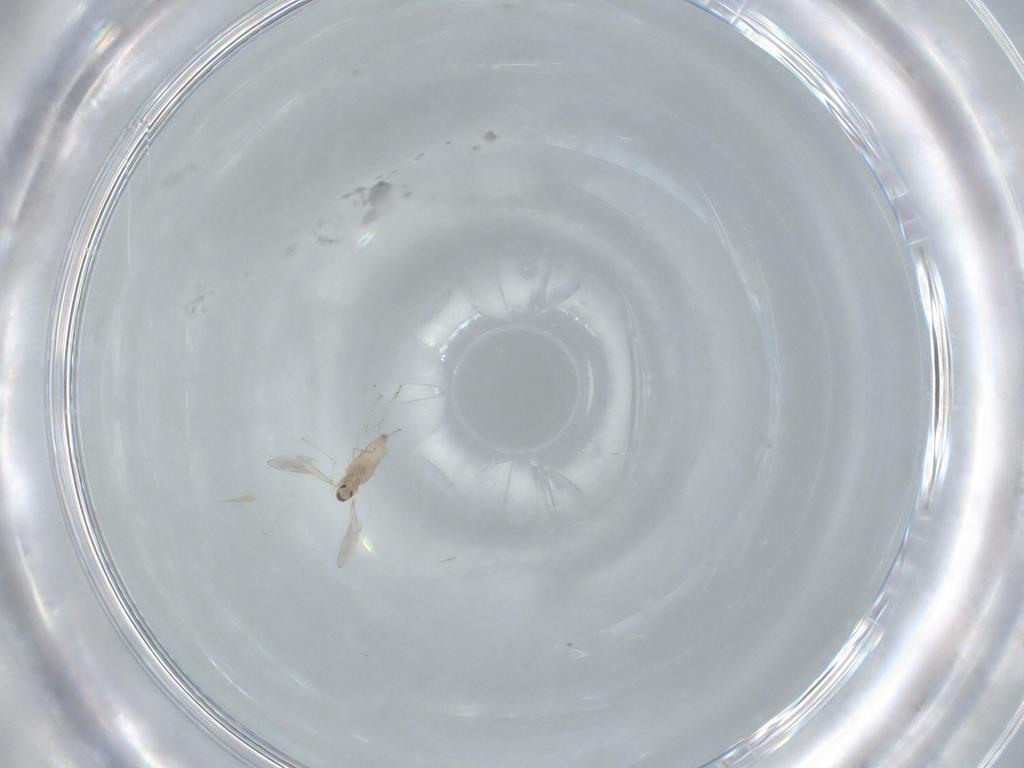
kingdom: Animalia
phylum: Arthropoda
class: Insecta
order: Diptera
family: Cecidomyiidae
